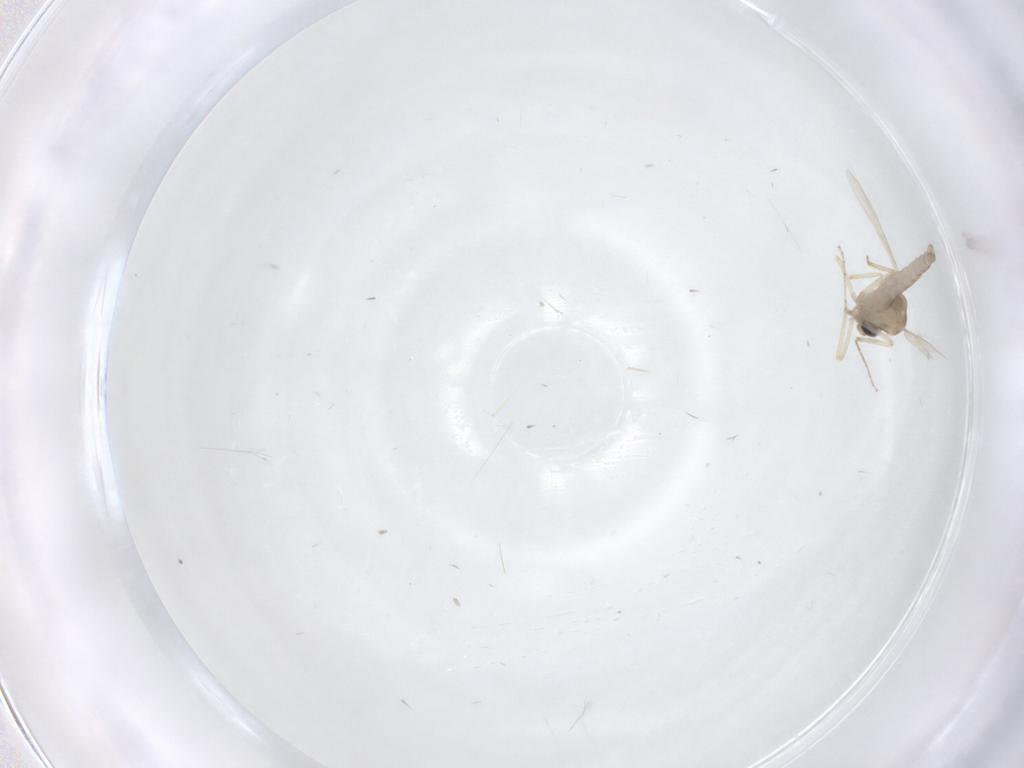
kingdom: Animalia
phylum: Arthropoda
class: Insecta
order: Diptera
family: Ceratopogonidae
